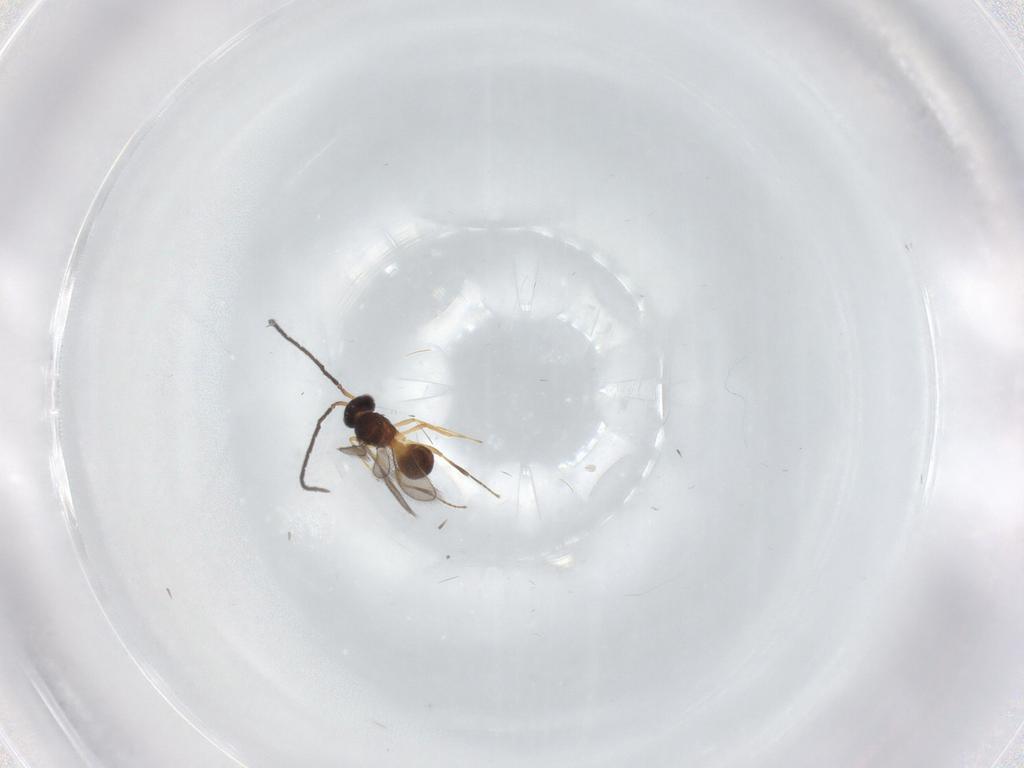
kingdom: Animalia
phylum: Arthropoda
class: Insecta
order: Hymenoptera
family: Scelionidae
